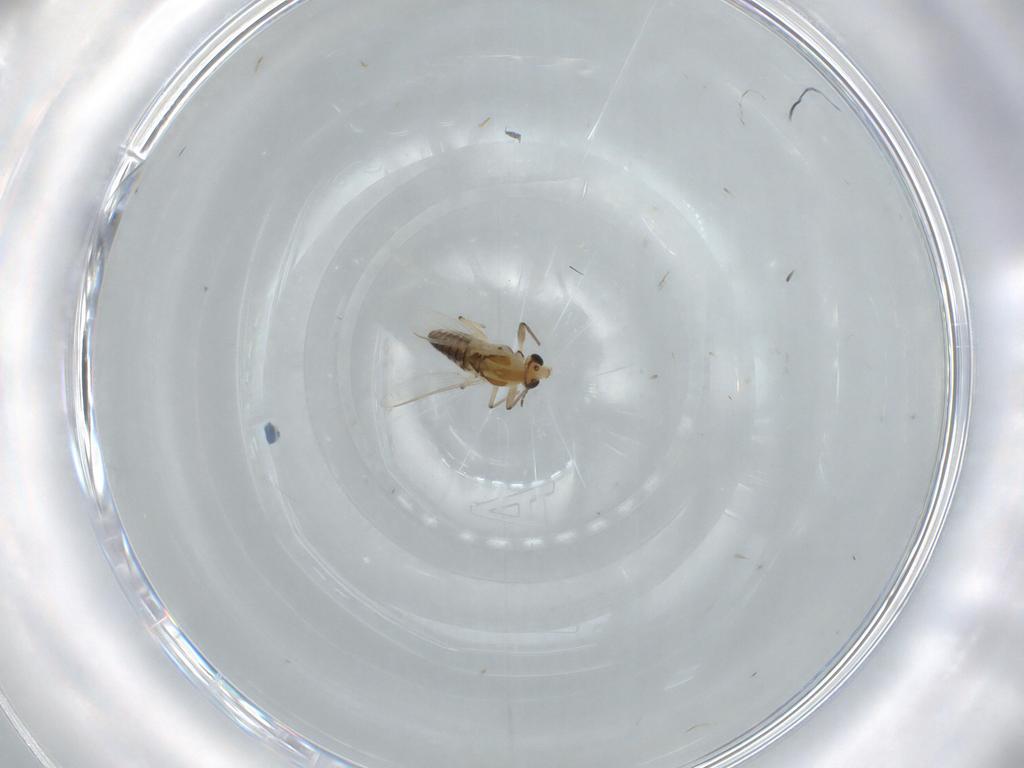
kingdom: Animalia
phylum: Arthropoda
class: Insecta
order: Diptera
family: Chironomidae
